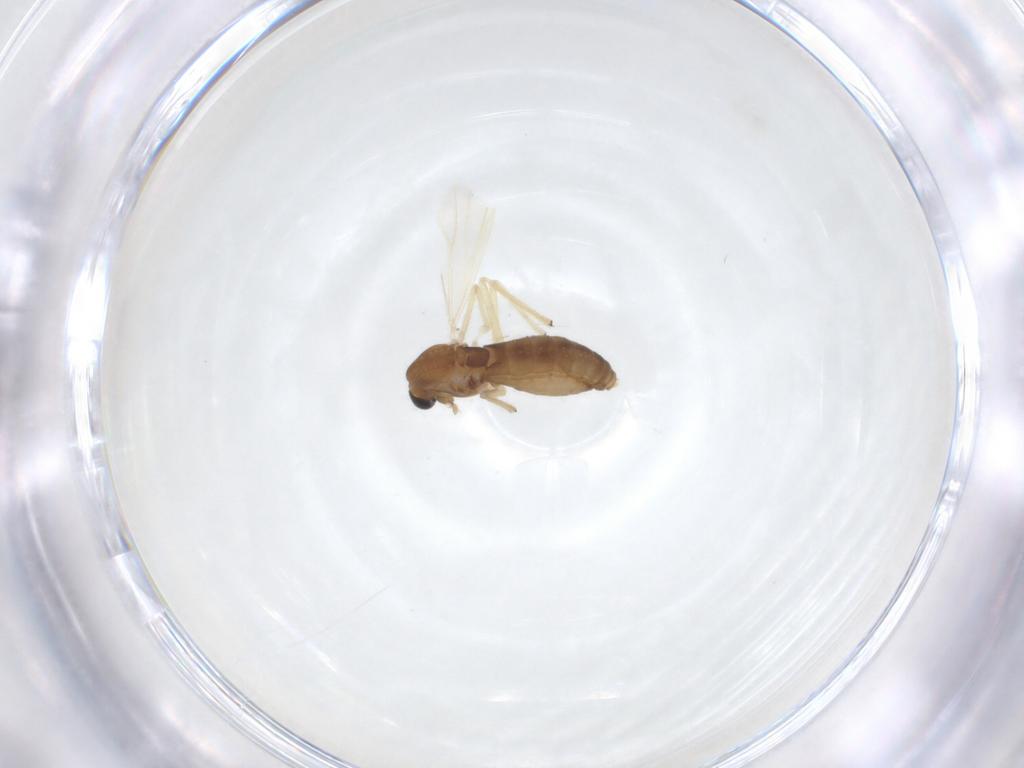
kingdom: Animalia
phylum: Arthropoda
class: Insecta
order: Diptera
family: Chironomidae
